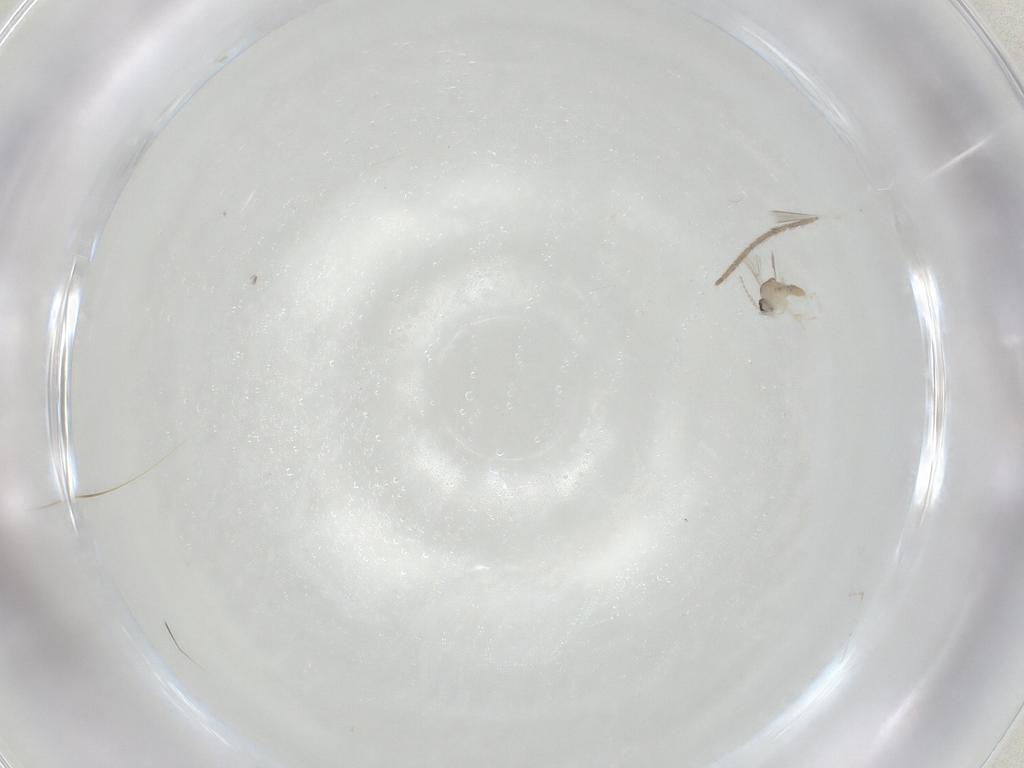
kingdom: Animalia
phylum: Arthropoda
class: Insecta
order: Diptera
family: Cecidomyiidae
